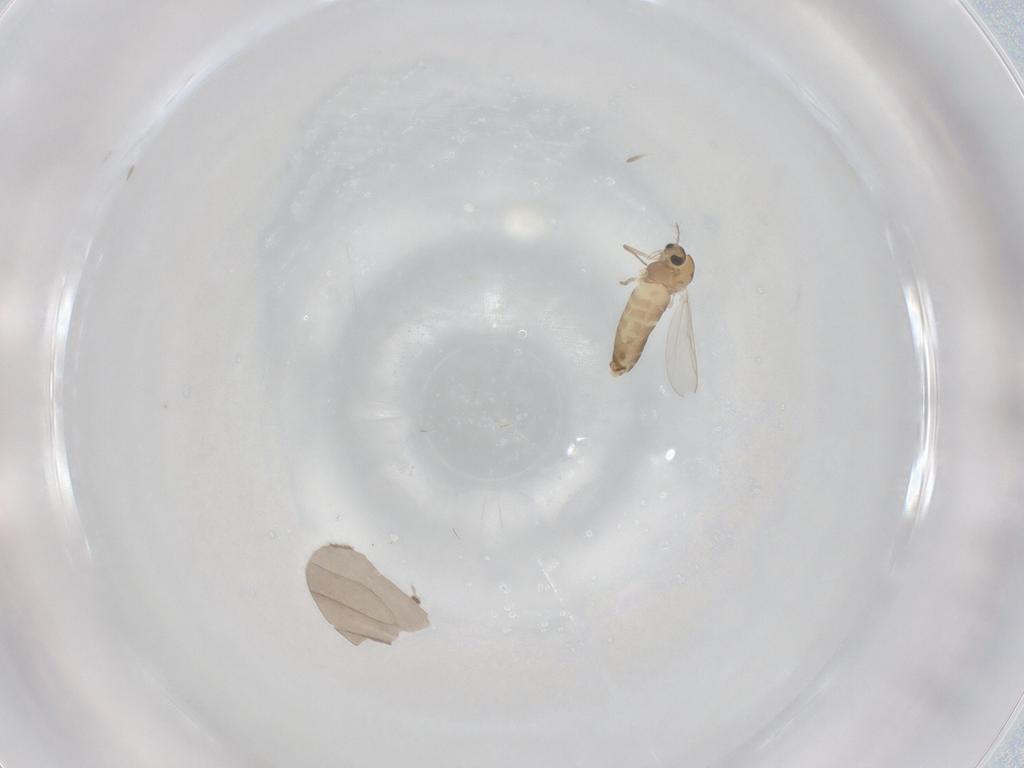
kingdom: Animalia
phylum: Arthropoda
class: Insecta
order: Diptera
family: Chironomidae
